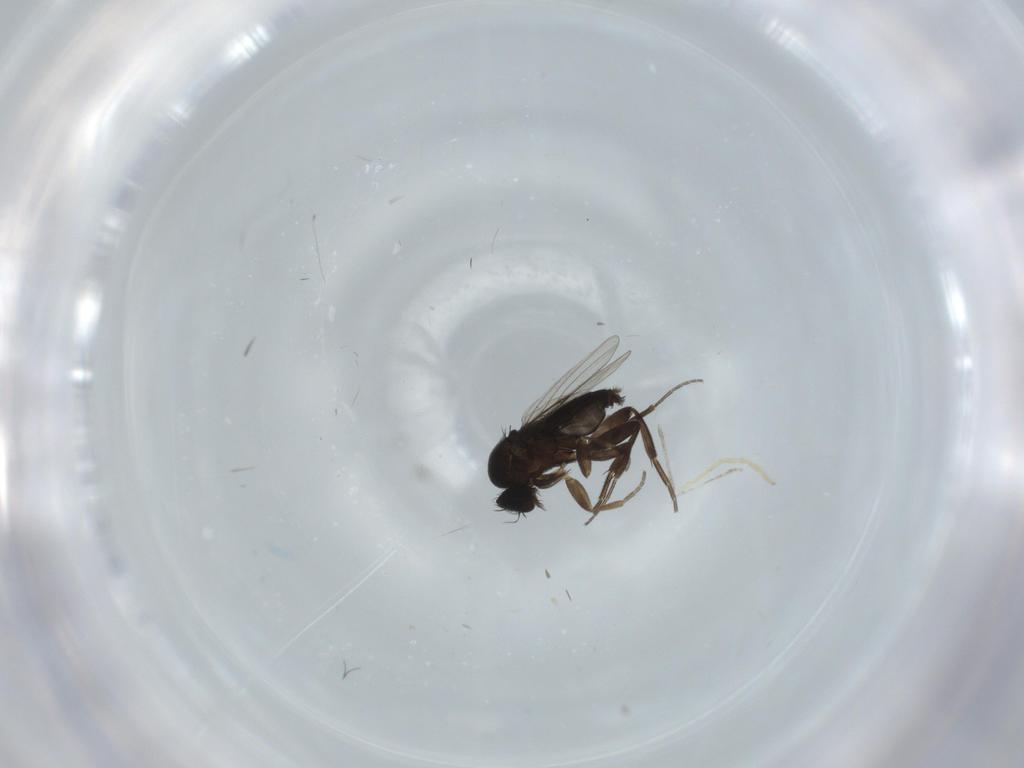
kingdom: Animalia
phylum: Arthropoda
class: Insecta
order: Diptera
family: Phoridae
